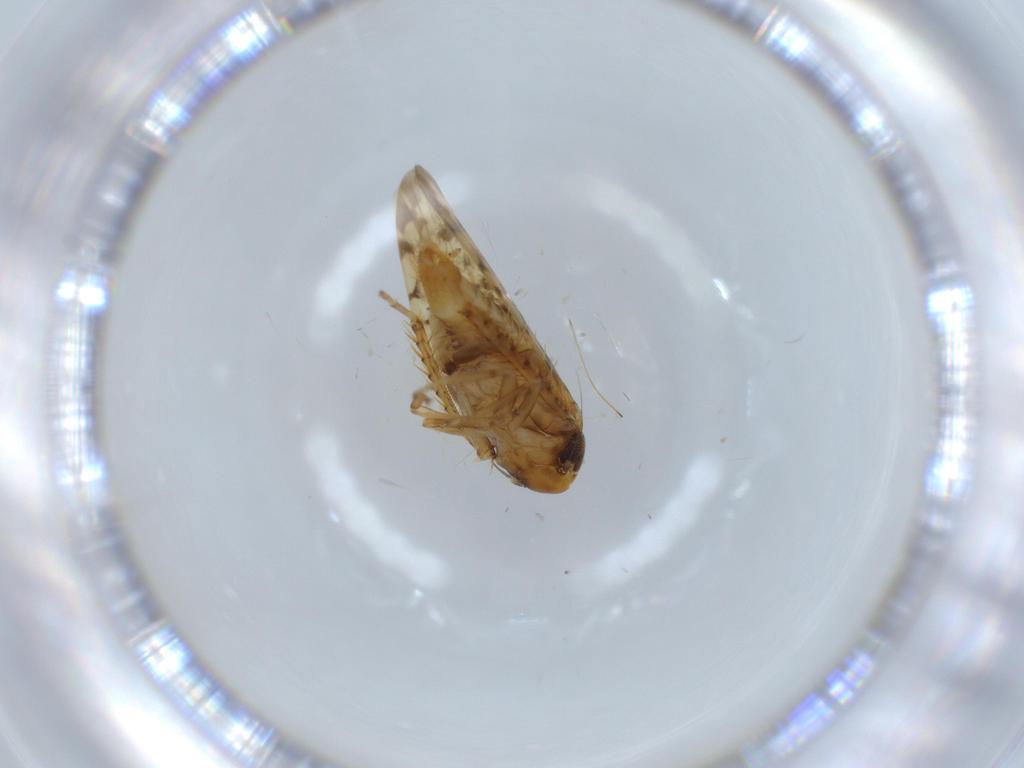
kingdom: Animalia
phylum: Arthropoda
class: Insecta
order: Hemiptera
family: Cicadellidae
